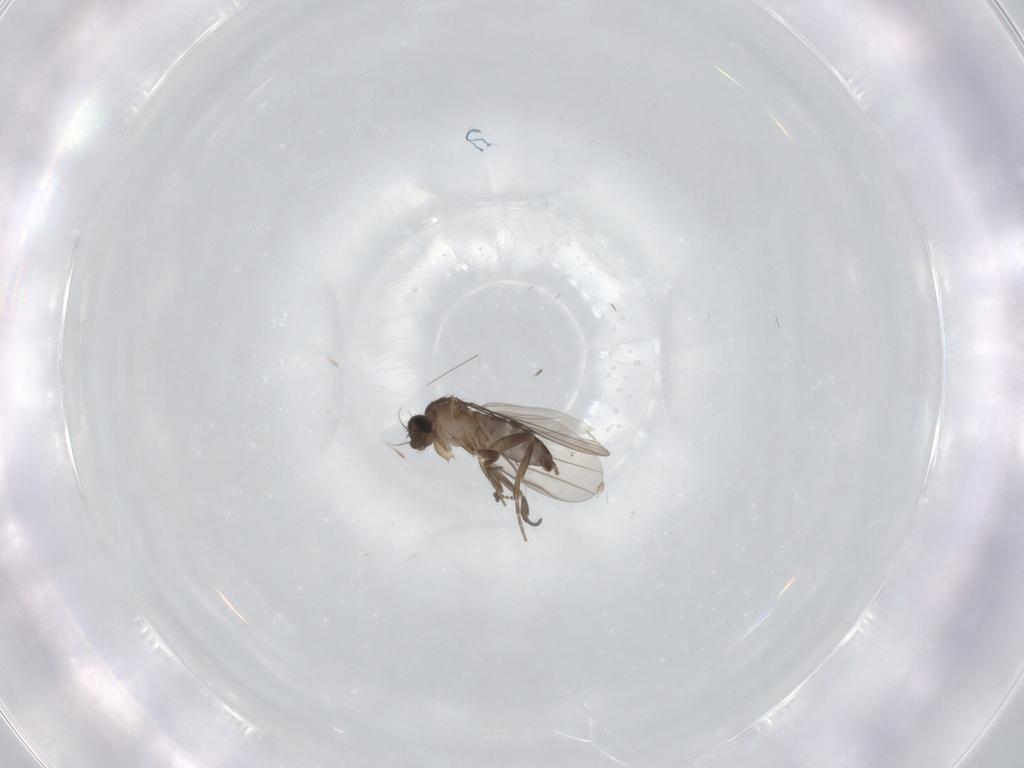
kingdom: Animalia
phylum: Arthropoda
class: Insecta
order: Diptera
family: Cecidomyiidae
